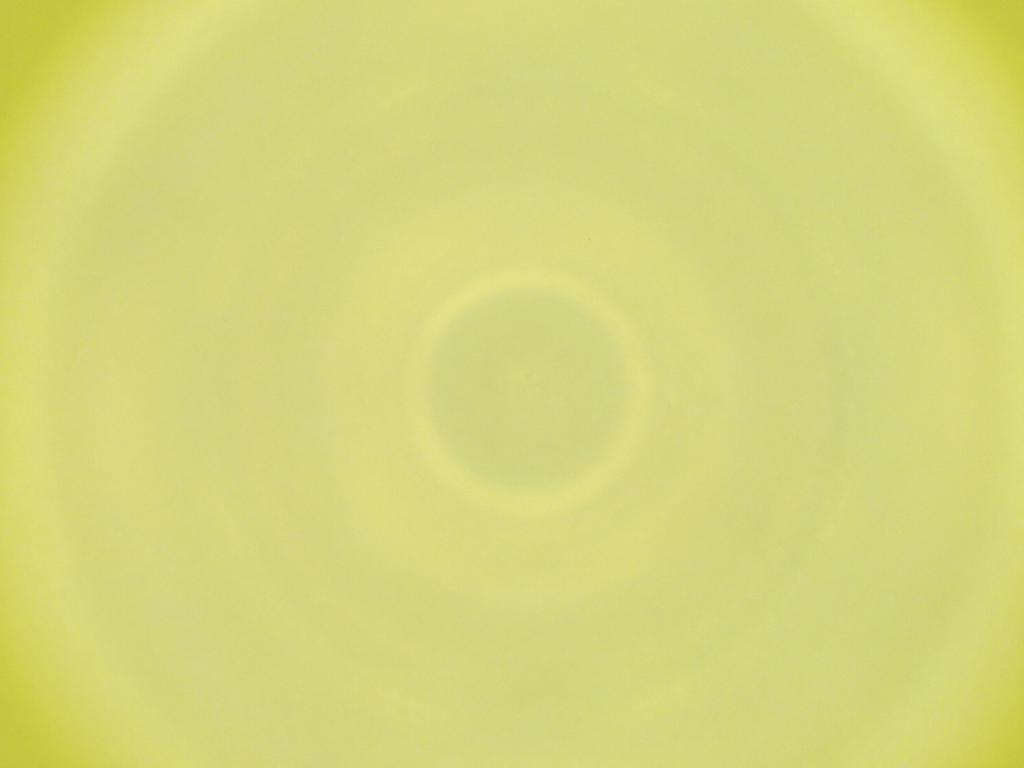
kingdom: Animalia
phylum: Arthropoda
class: Insecta
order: Diptera
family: Cecidomyiidae
